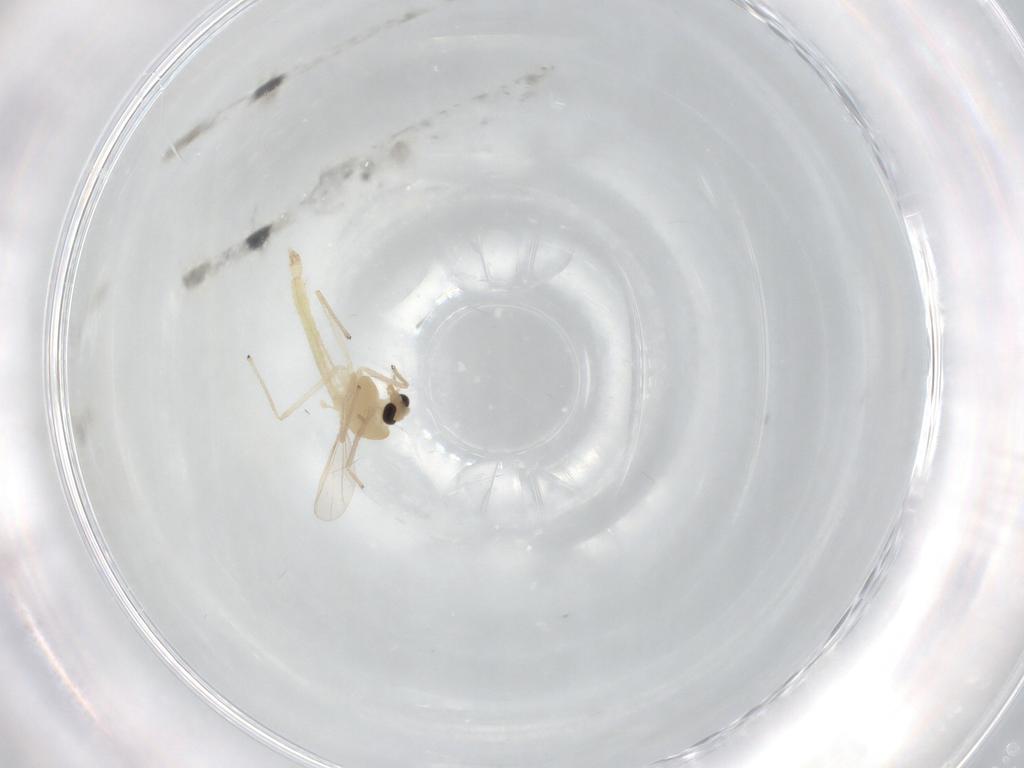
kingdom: Animalia
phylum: Arthropoda
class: Insecta
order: Diptera
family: Chironomidae
